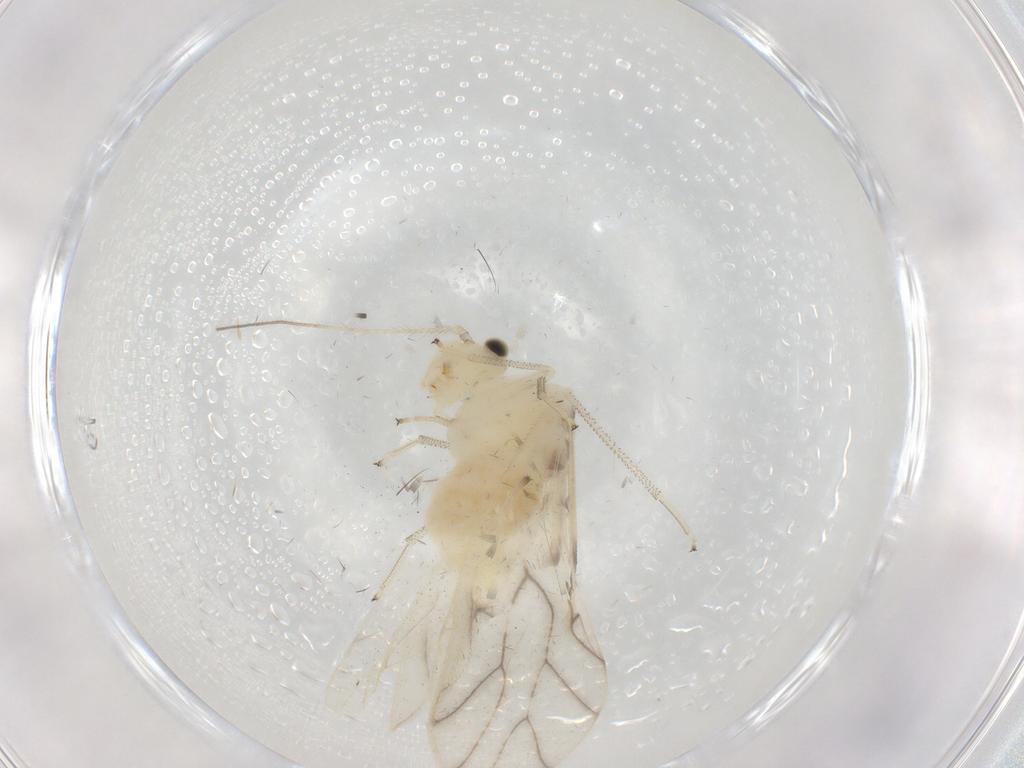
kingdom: Animalia
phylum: Arthropoda
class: Insecta
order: Psocodea
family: Caeciliusidae
